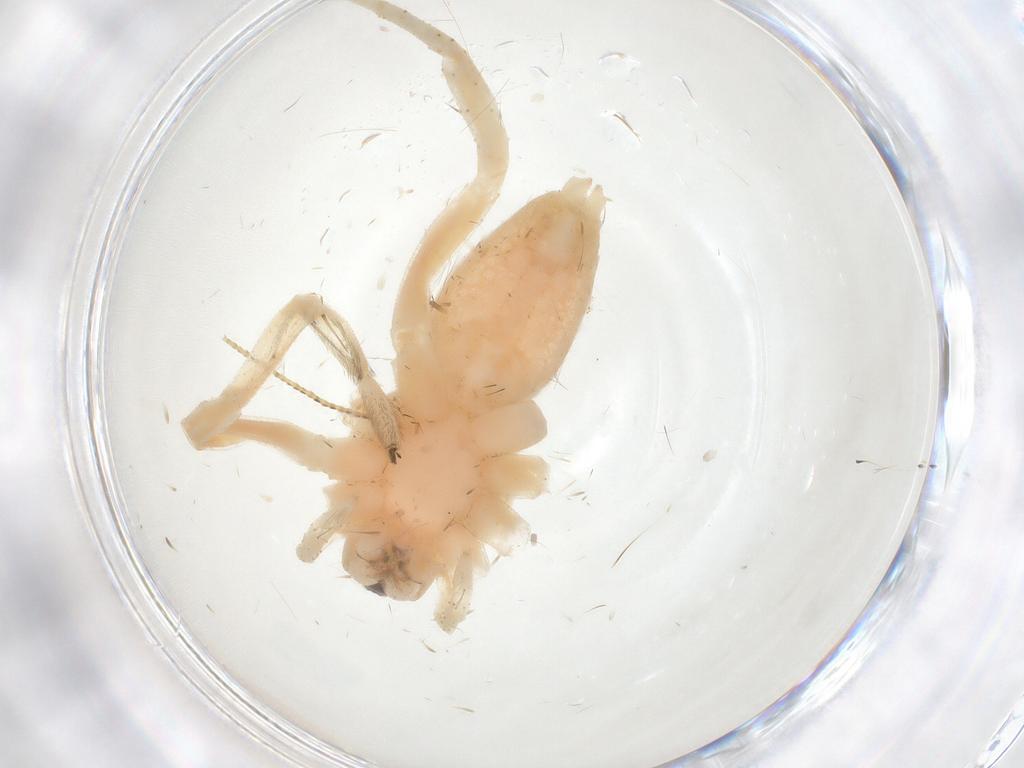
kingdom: Animalia
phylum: Arthropoda
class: Arachnida
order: Araneae
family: Anyphaenidae
